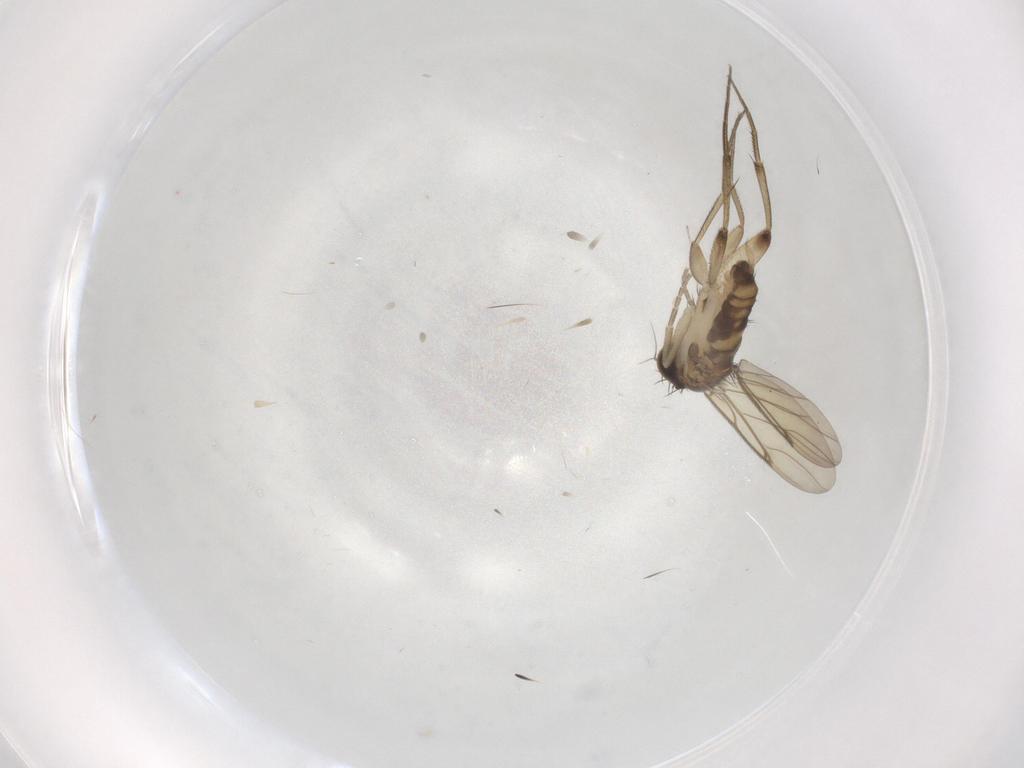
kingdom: Animalia
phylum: Arthropoda
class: Insecta
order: Diptera
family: Phoridae
